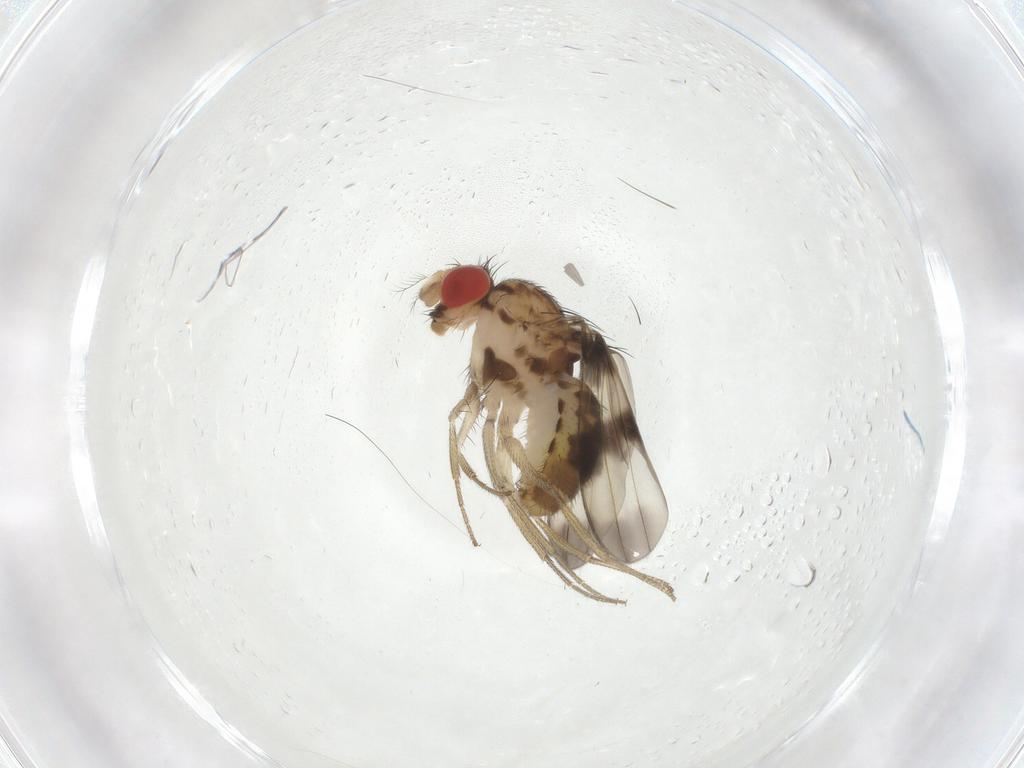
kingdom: Animalia
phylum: Arthropoda
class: Insecta
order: Diptera
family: Drosophilidae
